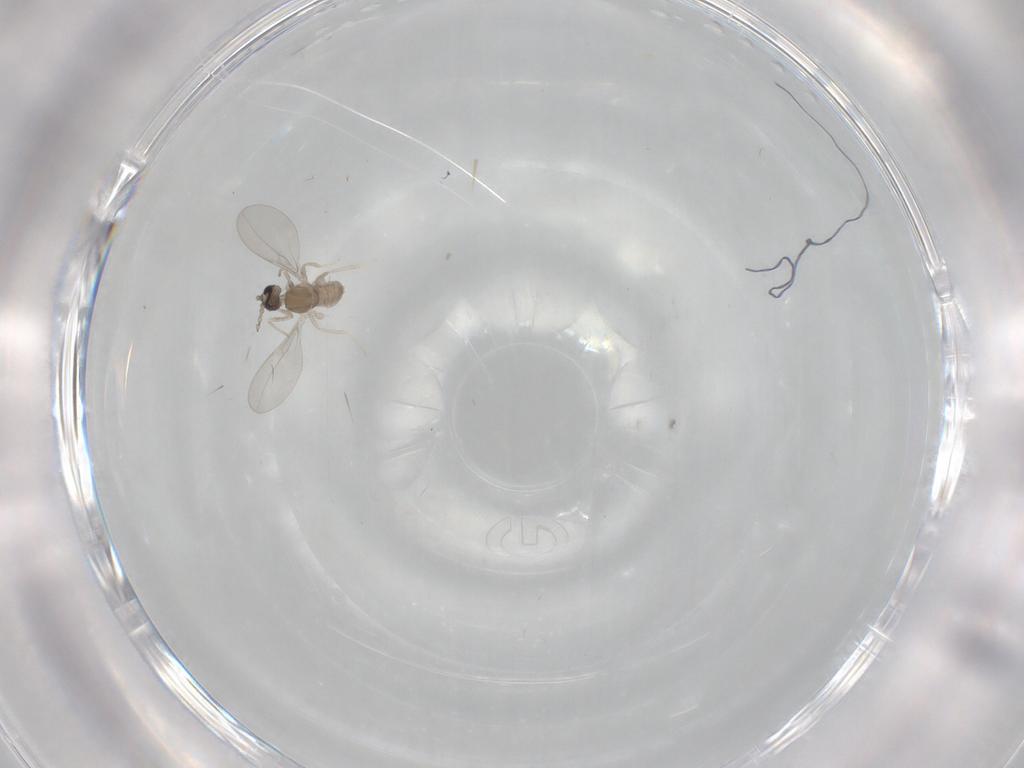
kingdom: Animalia
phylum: Arthropoda
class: Insecta
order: Diptera
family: Cecidomyiidae
